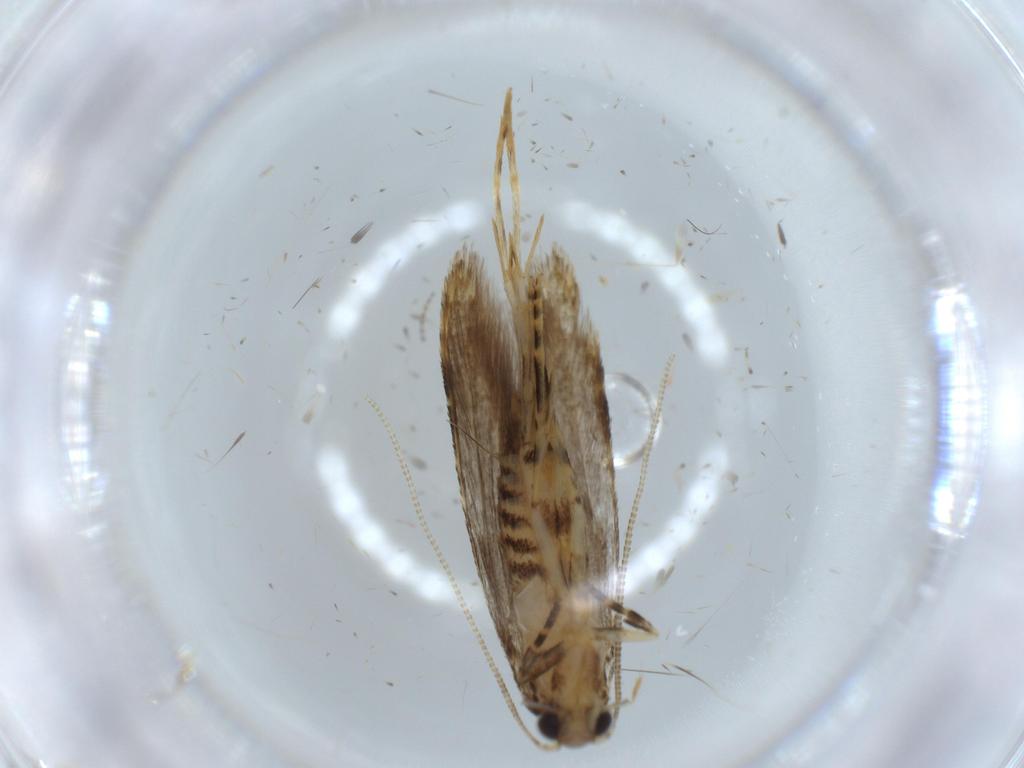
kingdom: Animalia
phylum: Arthropoda
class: Insecta
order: Lepidoptera
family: Tineidae
